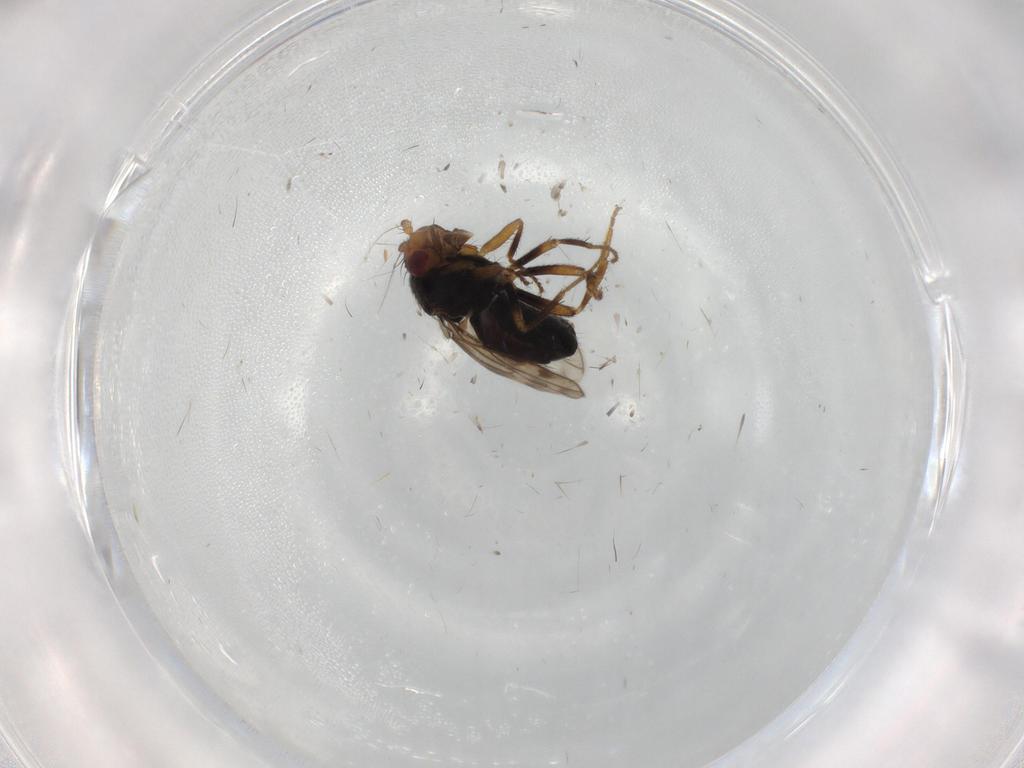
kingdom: Animalia
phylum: Arthropoda
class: Insecta
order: Diptera
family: Sphaeroceridae
